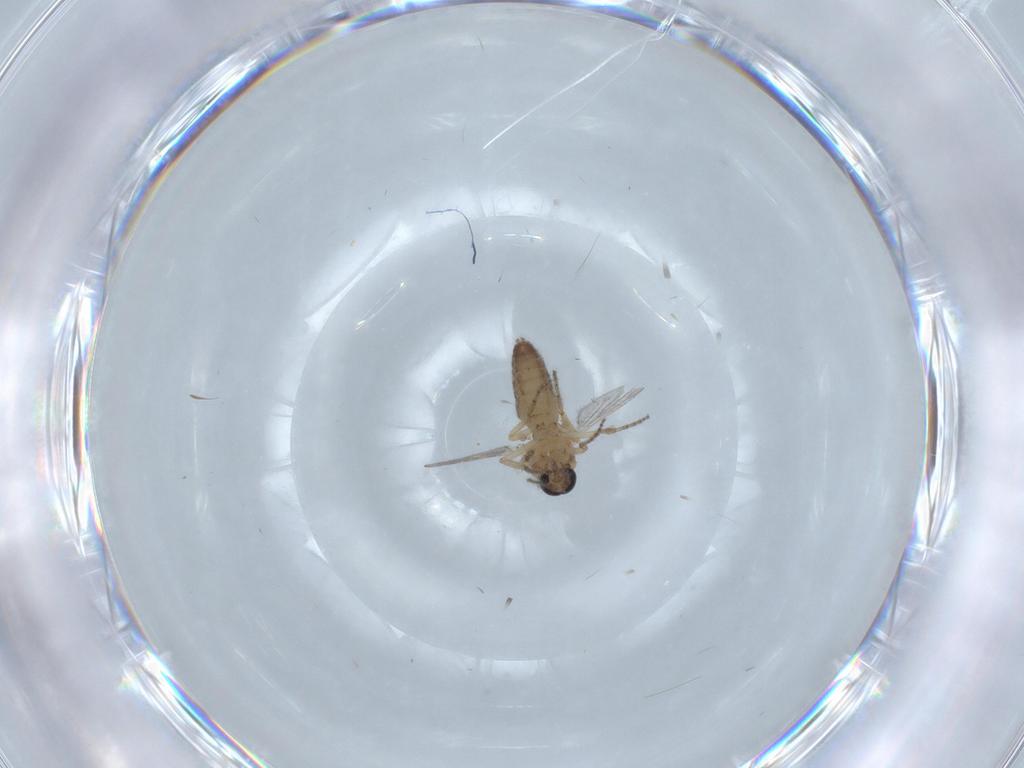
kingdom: Animalia
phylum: Arthropoda
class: Insecta
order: Diptera
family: Ceratopogonidae
